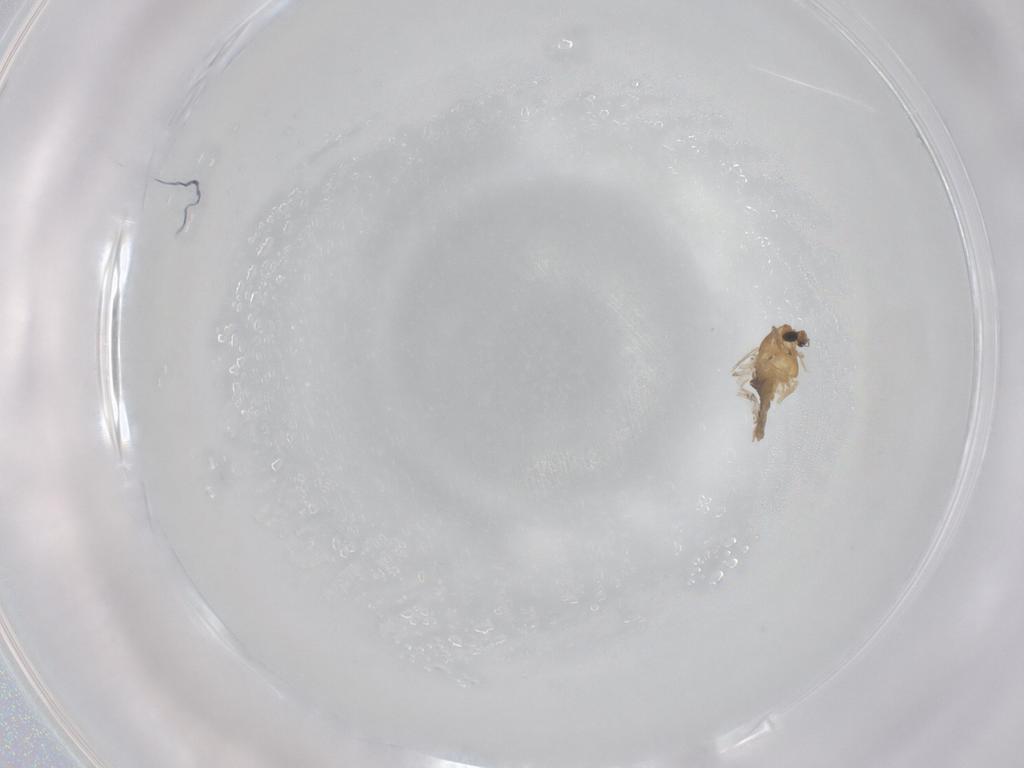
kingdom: Animalia
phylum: Arthropoda
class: Insecta
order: Diptera
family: Chironomidae
